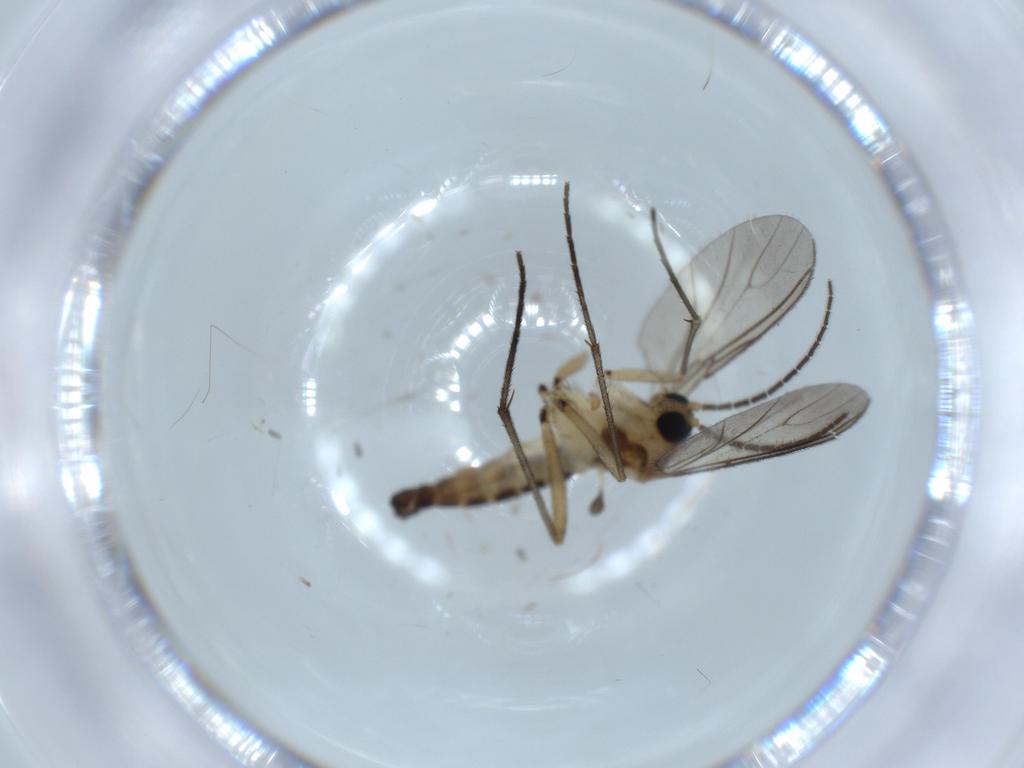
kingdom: Animalia
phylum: Arthropoda
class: Insecta
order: Diptera
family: Sciaridae
